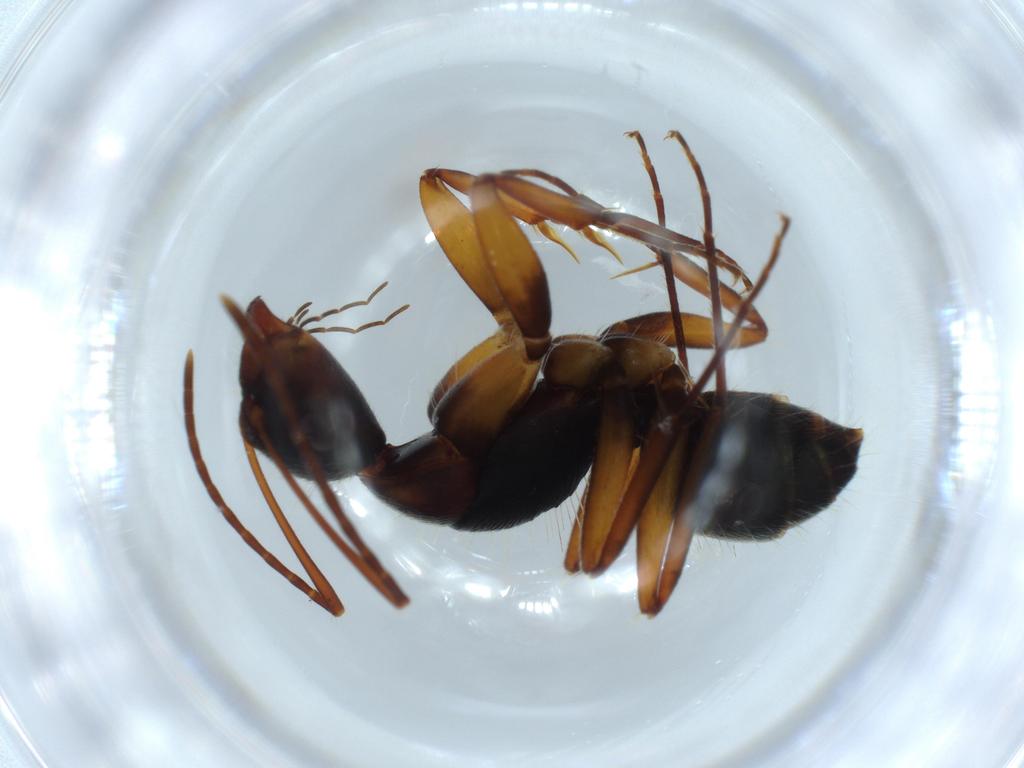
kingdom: Animalia
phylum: Arthropoda
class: Insecta
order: Hymenoptera
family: Formicidae
